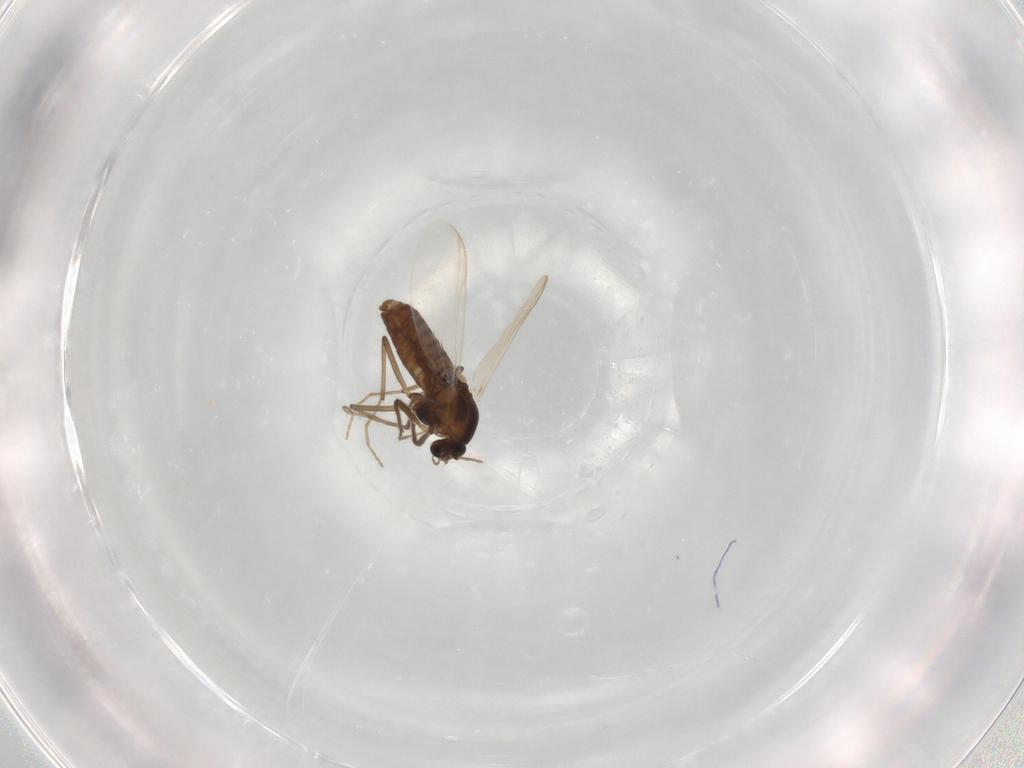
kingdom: Animalia
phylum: Arthropoda
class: Insecta
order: Diptera
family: Chironomidae
